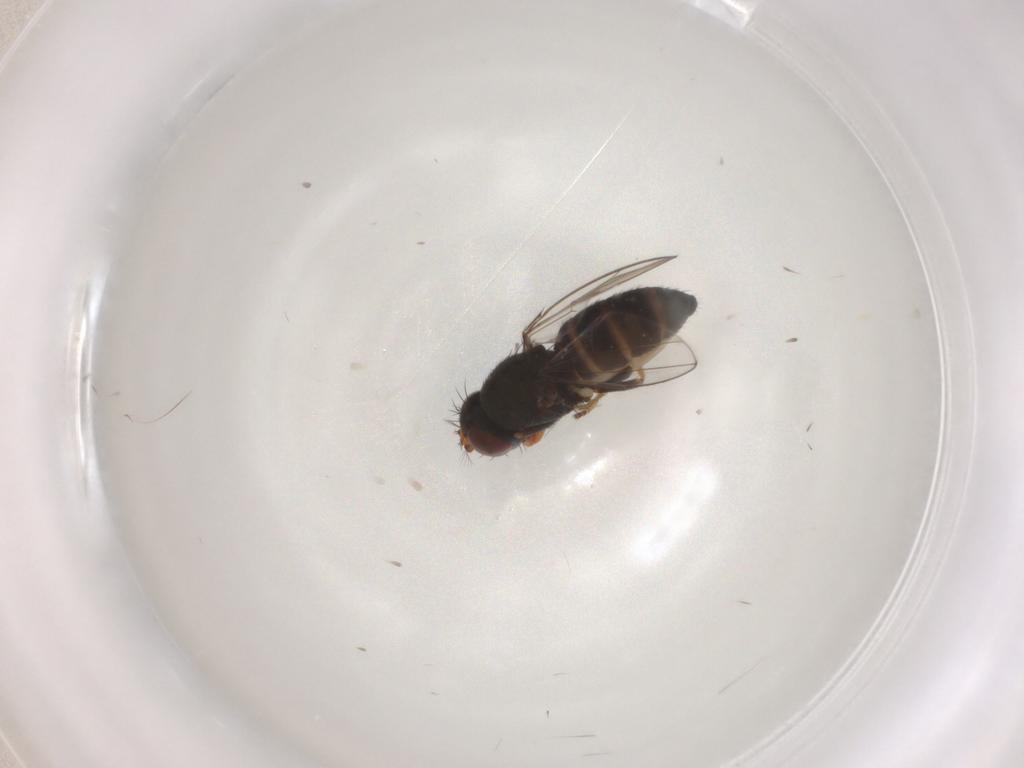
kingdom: Animalia
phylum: Arthropoda
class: Insecta
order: Diptera
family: Ephydridae
